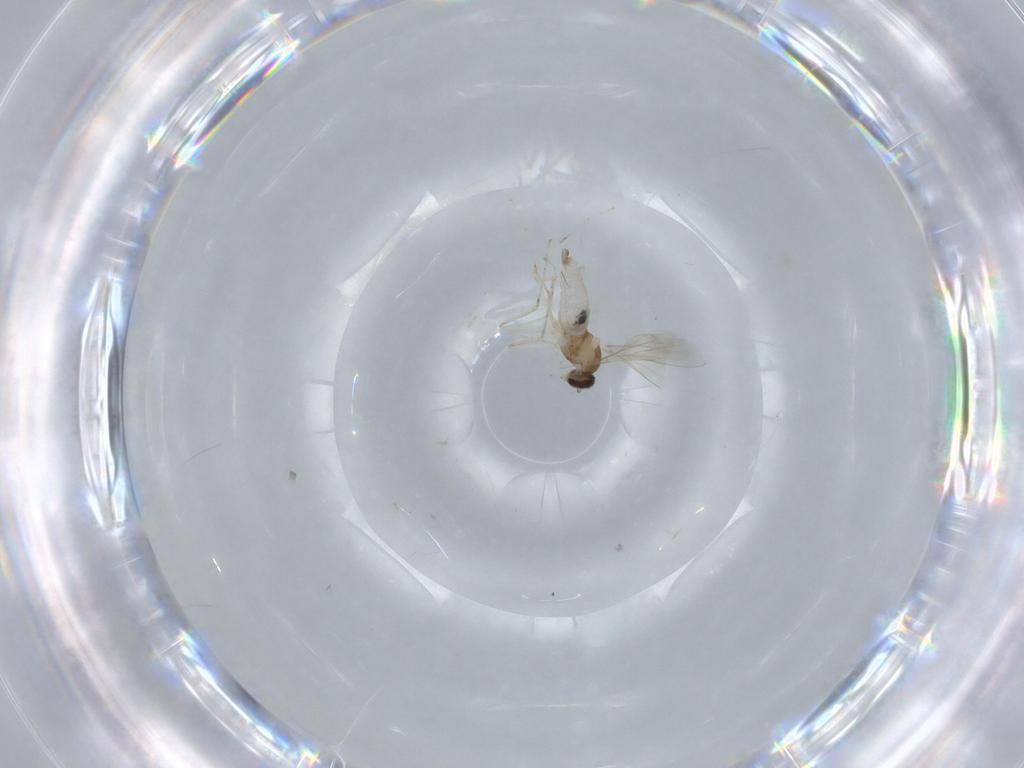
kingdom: Animalia
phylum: Arthropoda
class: Insecta
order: Diptera
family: Cecidomyiidae
